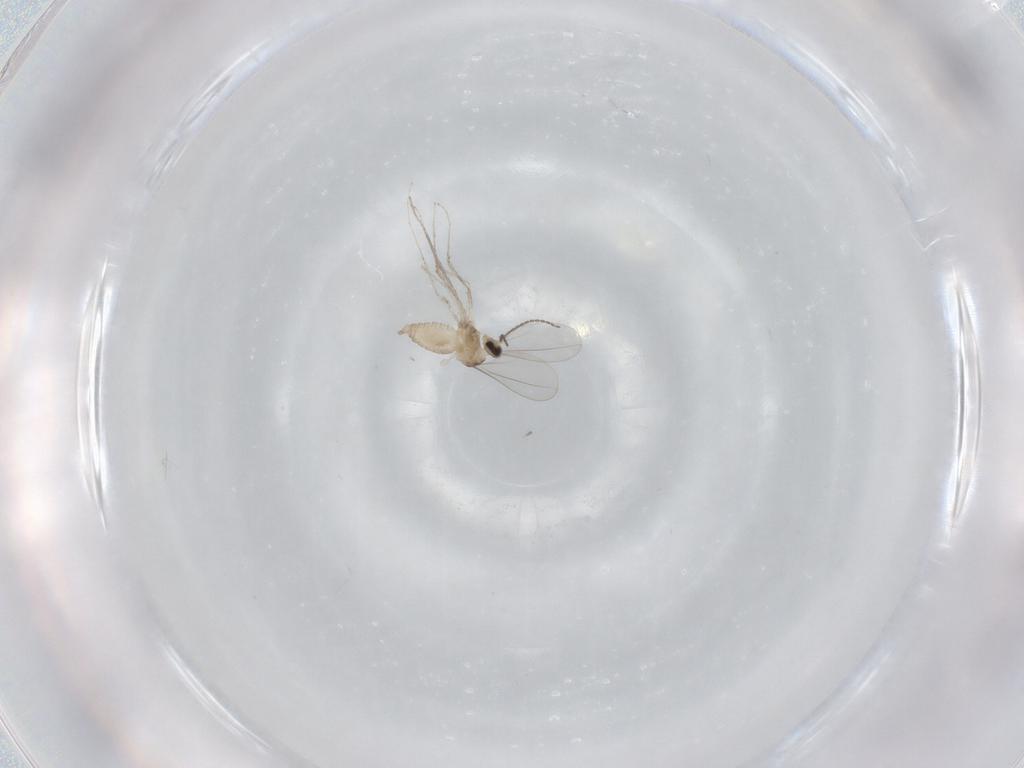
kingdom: Animalia
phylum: Arthropoda
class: Insecta
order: Diptera
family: Cecidomyiidae
